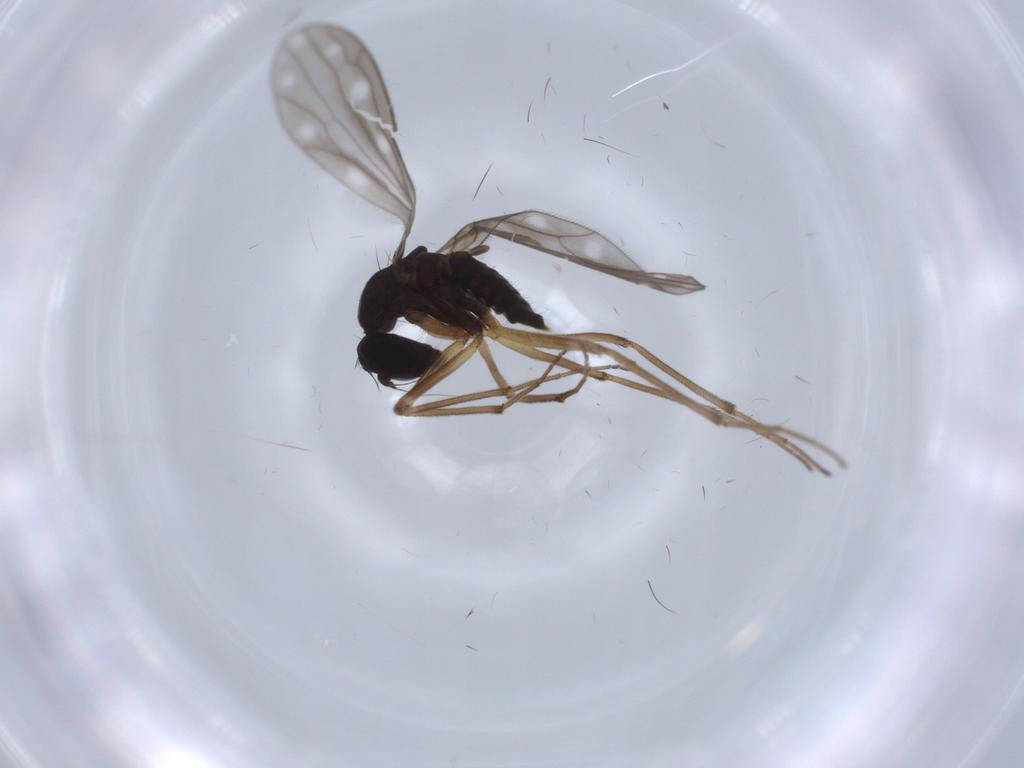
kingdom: Animalia
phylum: Arthropoda
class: Insecta
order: Diptera
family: Empididae
